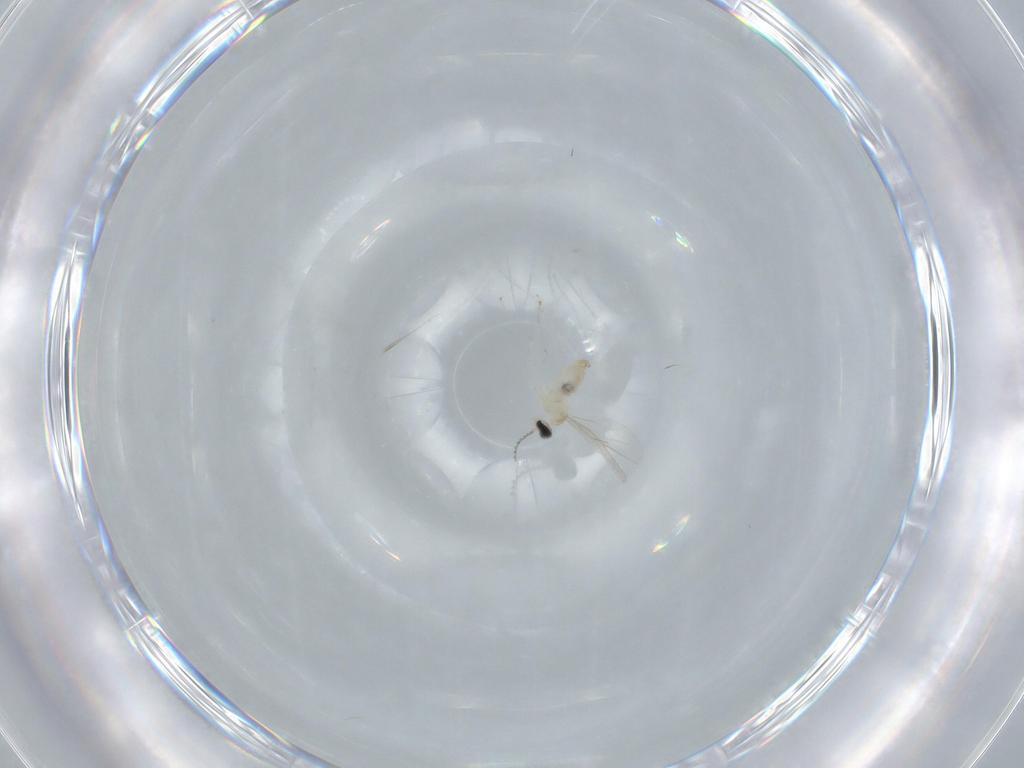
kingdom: Animalia
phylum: Arthropoda
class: Insecta
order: Diptera
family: Cecidomyiidae
